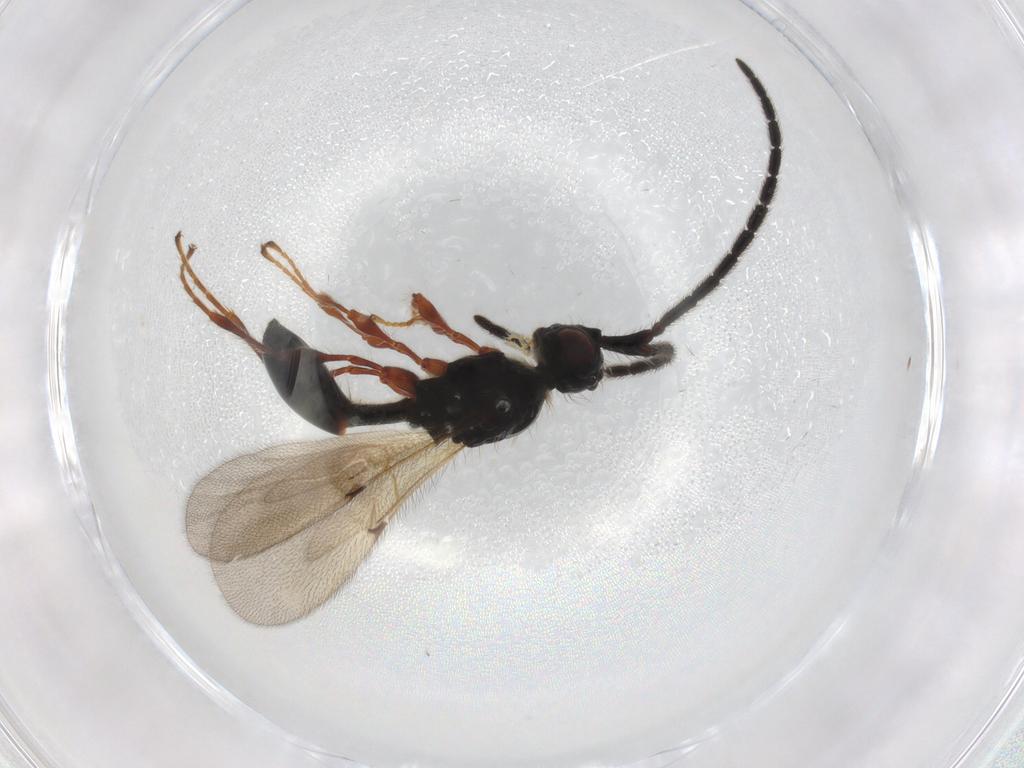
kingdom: Animalia
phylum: Arthropoda
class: Insecta
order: Hymenoptera
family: Diapriidae
